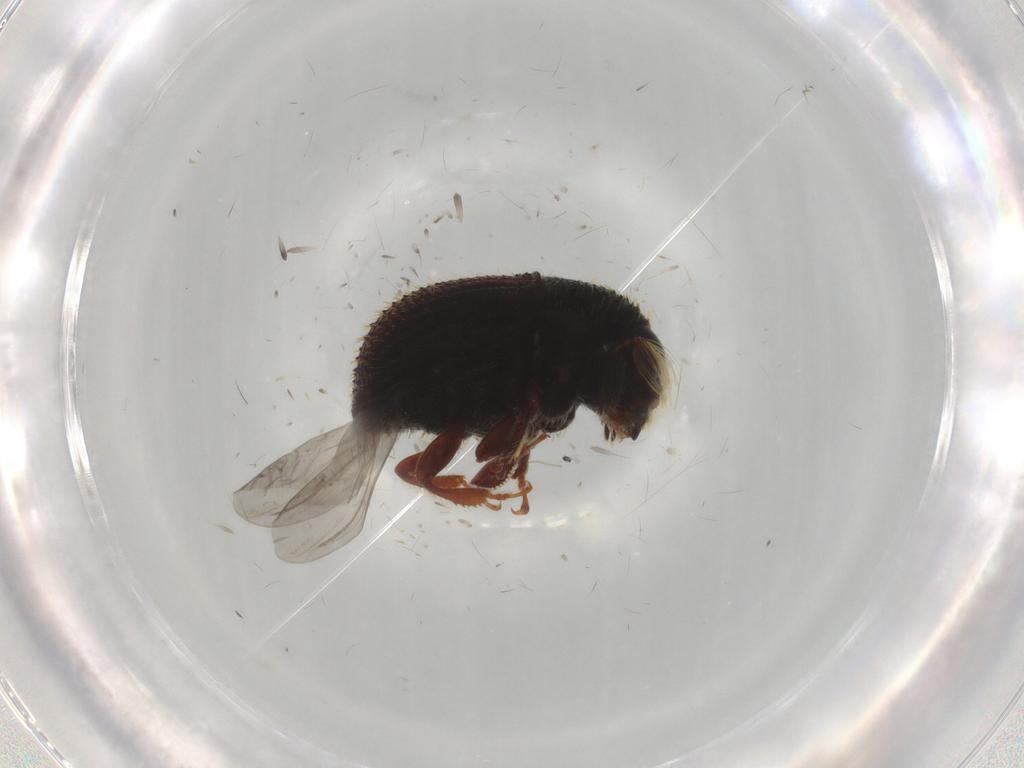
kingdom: Animalia
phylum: Arthropoda
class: Insecta
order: Coleoptera
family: Curculionidae
